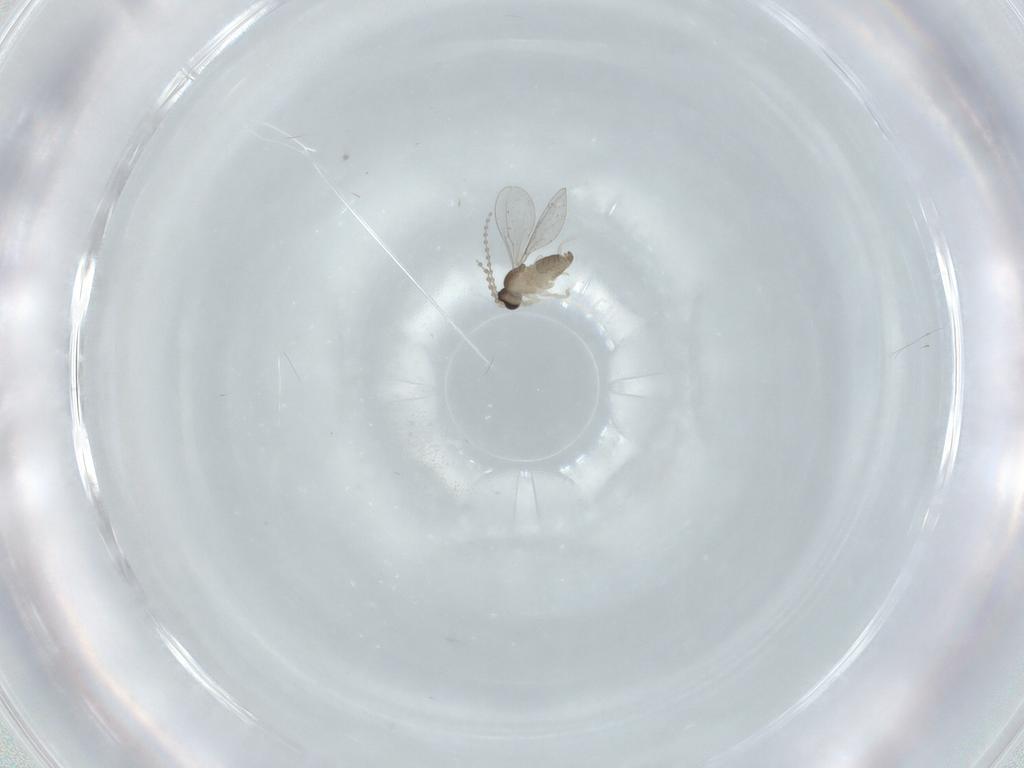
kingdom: Animalia
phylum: Arthropoda
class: Insecta
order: Diptera
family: Cecidomyiidae
